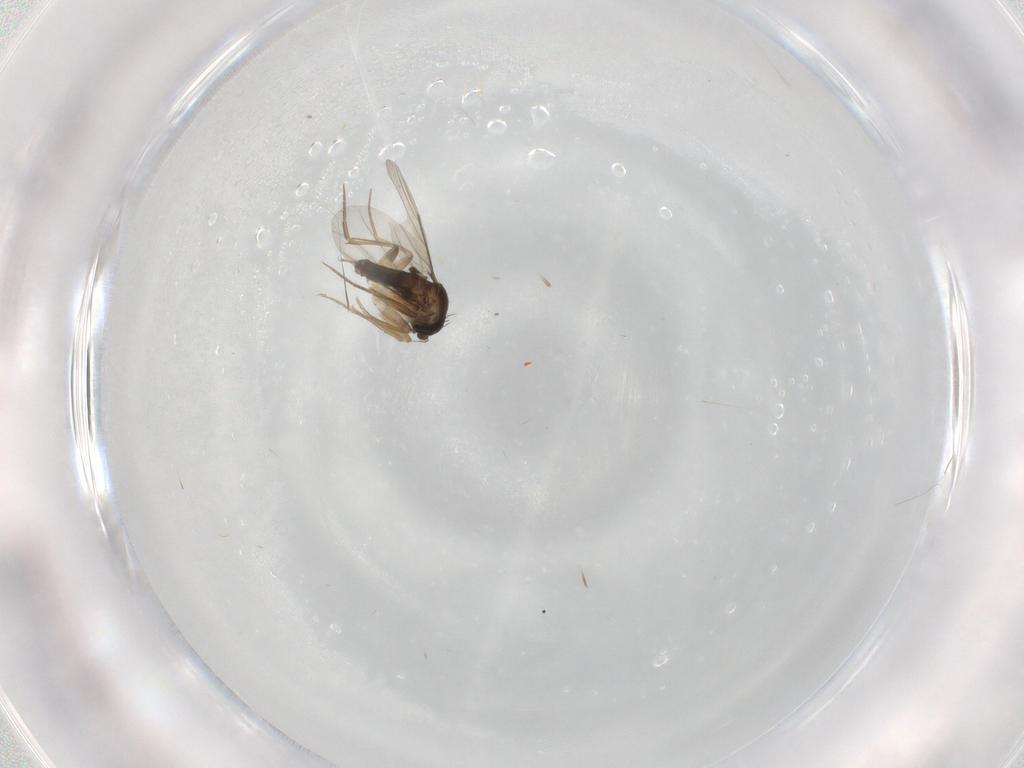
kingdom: Animalia
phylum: Arthropoda
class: Insecta
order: Diptera
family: Phoridae
